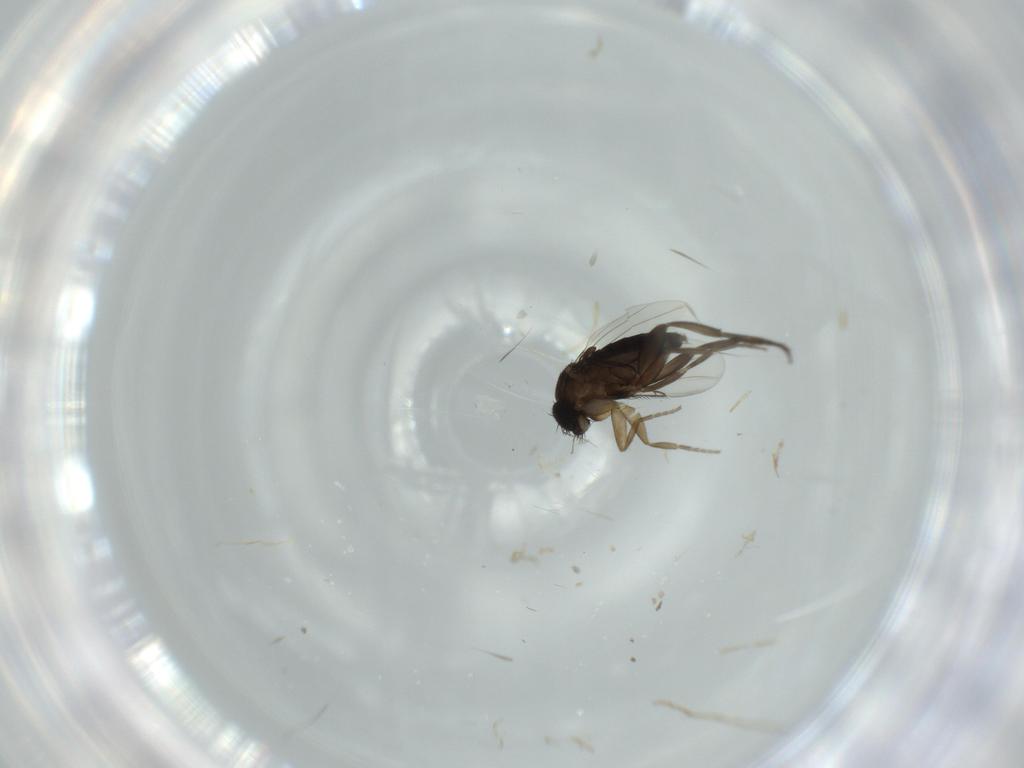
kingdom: Animalia
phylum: Arthropoda
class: Insecta
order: Diptera
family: Phoridae
